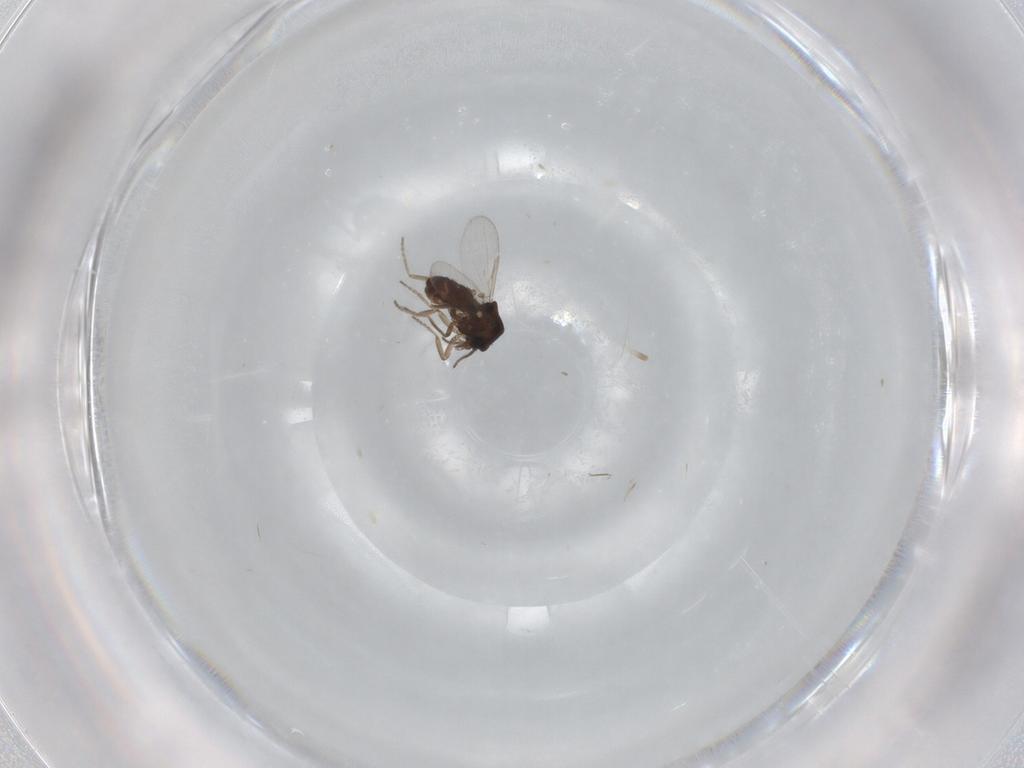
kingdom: Animalia
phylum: Arthropoda
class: Insecta
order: Diptera
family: Ceratopogonidae
